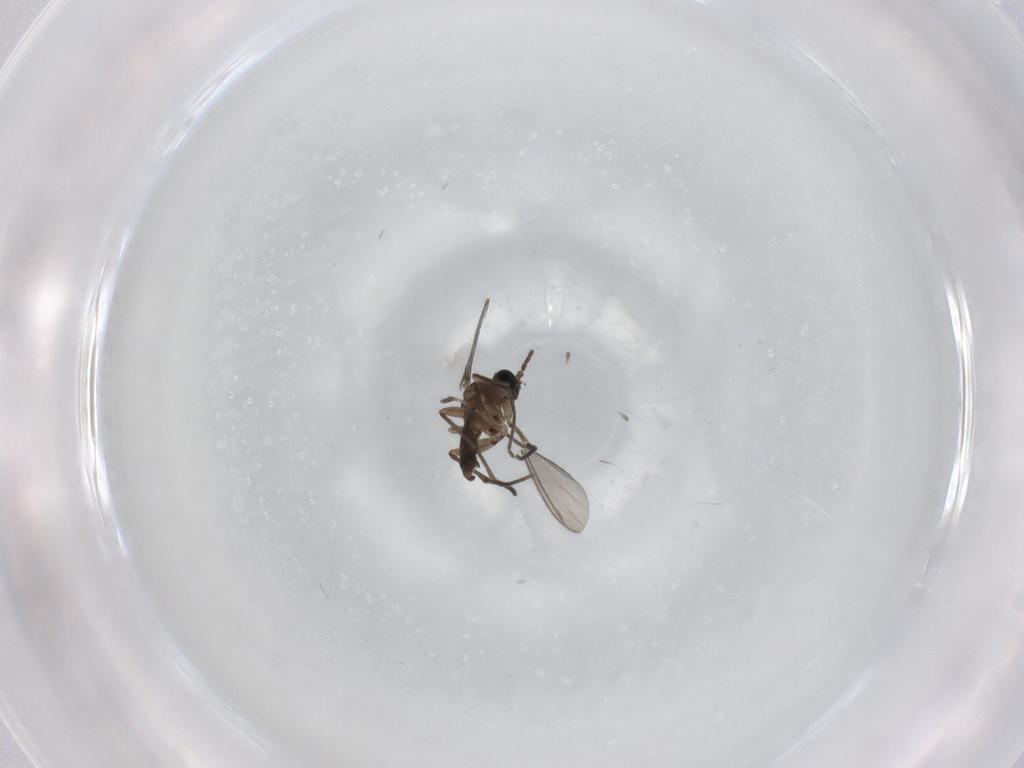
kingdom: Animalia
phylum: Arthropoda
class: Insecta
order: Diptera
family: Sciaridae
